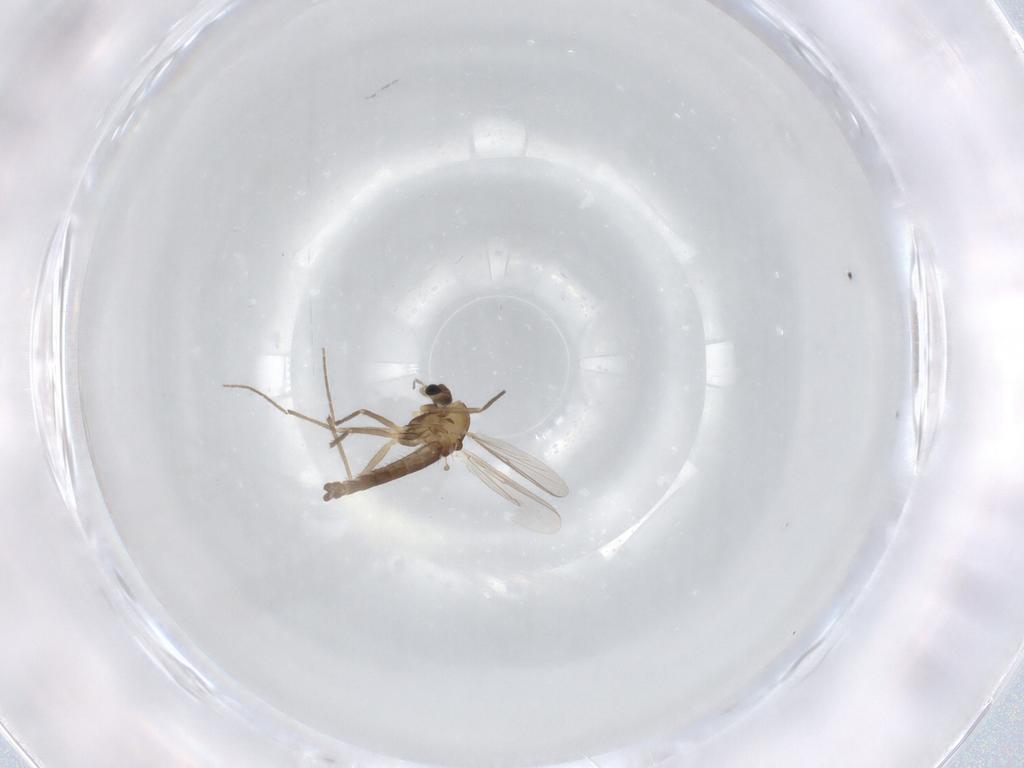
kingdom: Animalia
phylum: Arthropoda
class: Insecta
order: Diptera
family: Chironomidae
